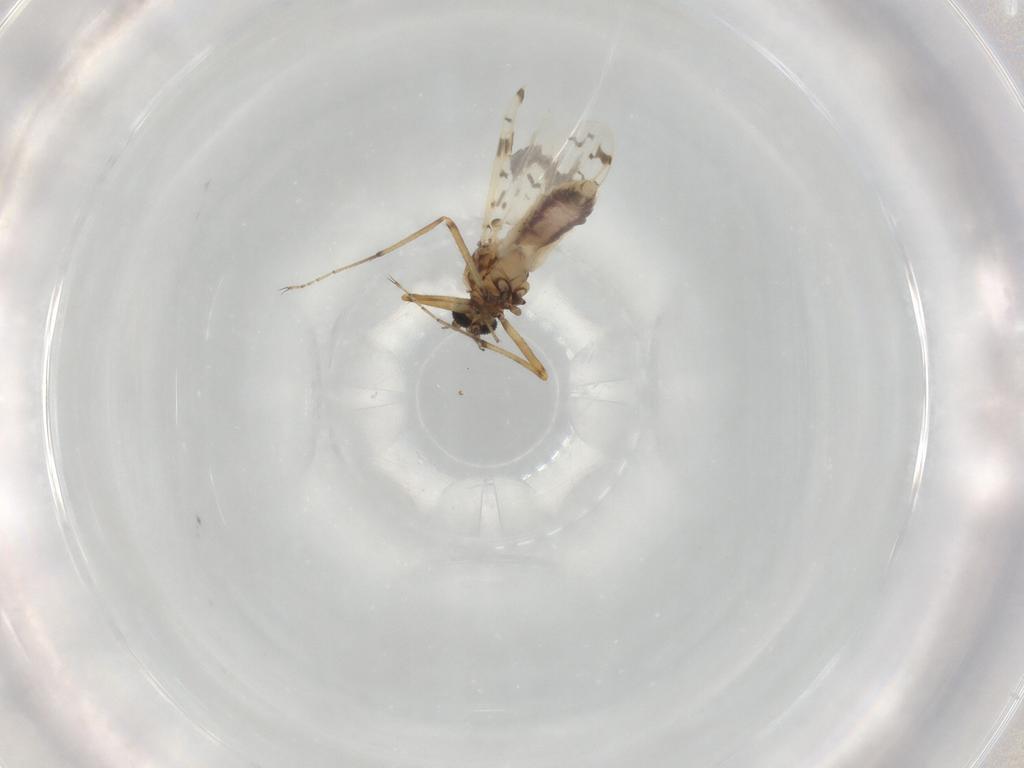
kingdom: Animalia
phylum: Arthropoda
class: Insecta
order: Diptera
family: Ceratopogonidae
